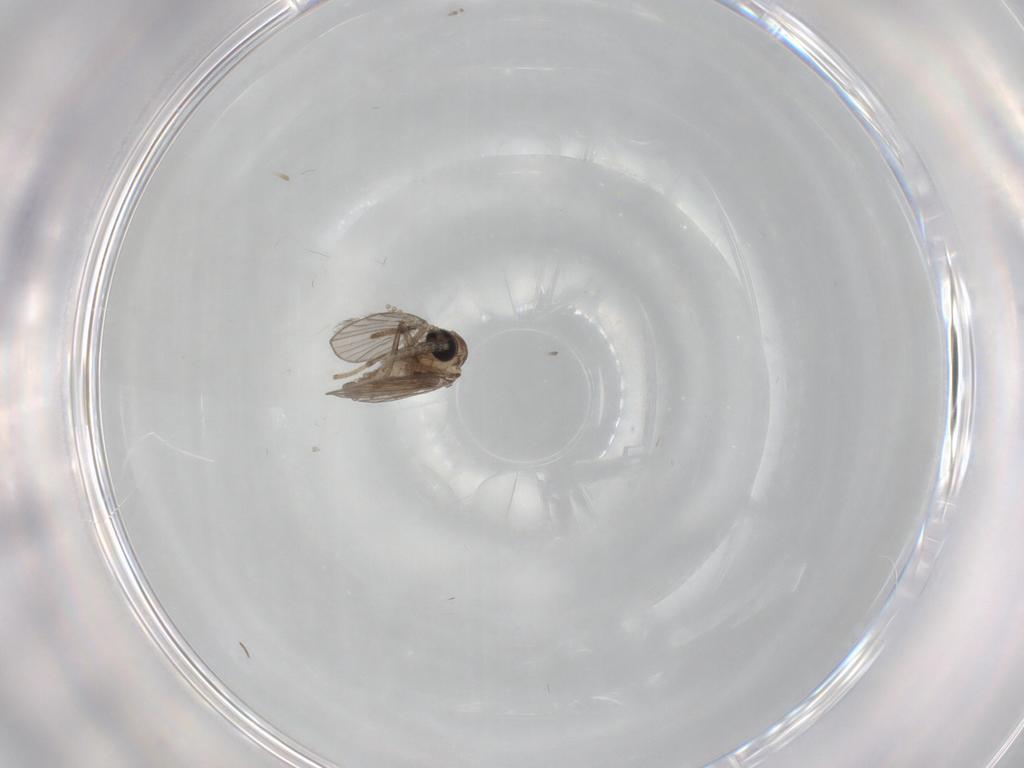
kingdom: Animalia
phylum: Arthropoda
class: Insecta
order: Diptera
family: Psychodidae
